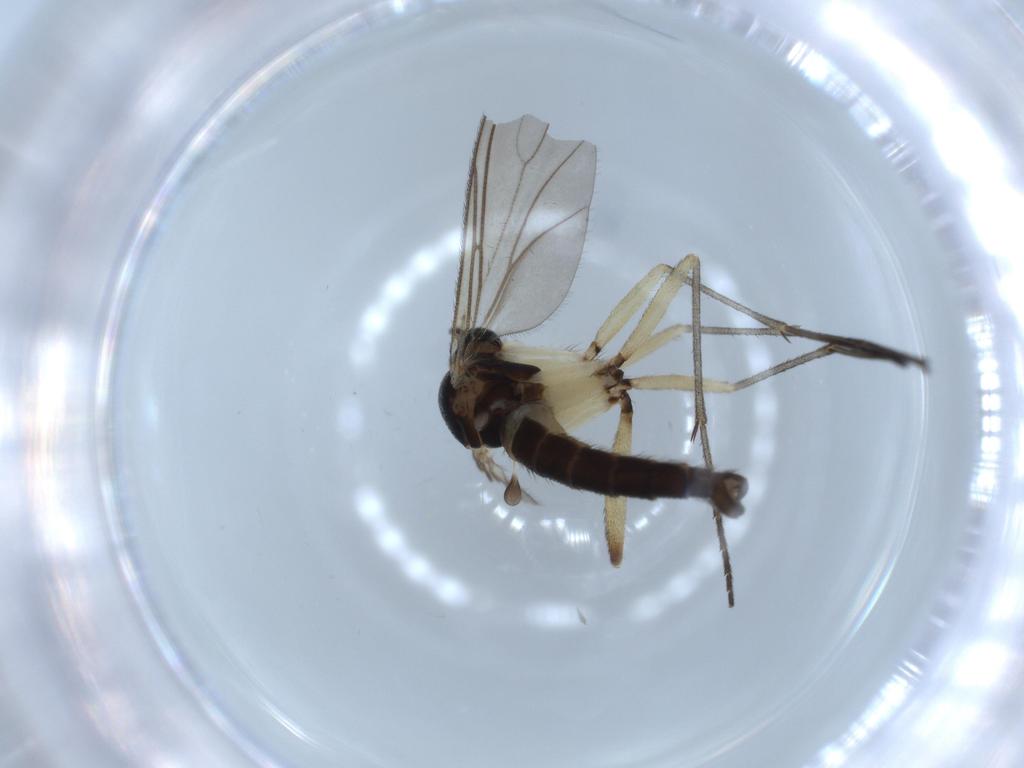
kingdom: Animalia
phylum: Arthropoda
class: Insecta
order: Diptera
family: Sciaridae
